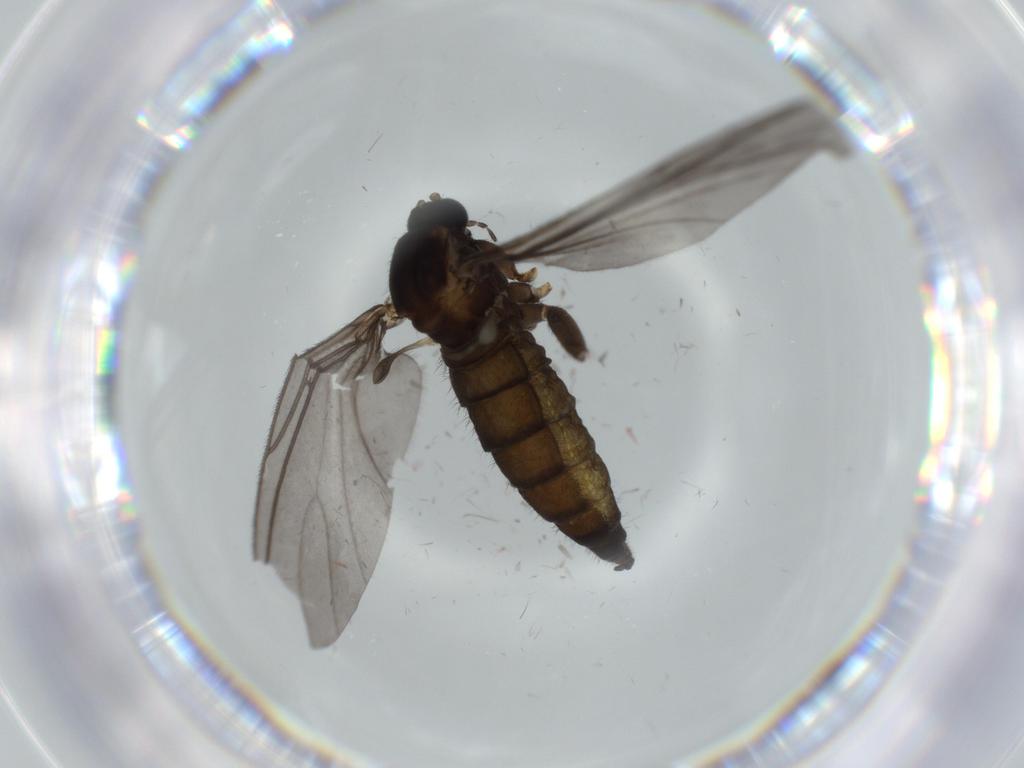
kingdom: Animalia
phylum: Arthropoda
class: Insecta
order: Diptera
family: Sciaridae
